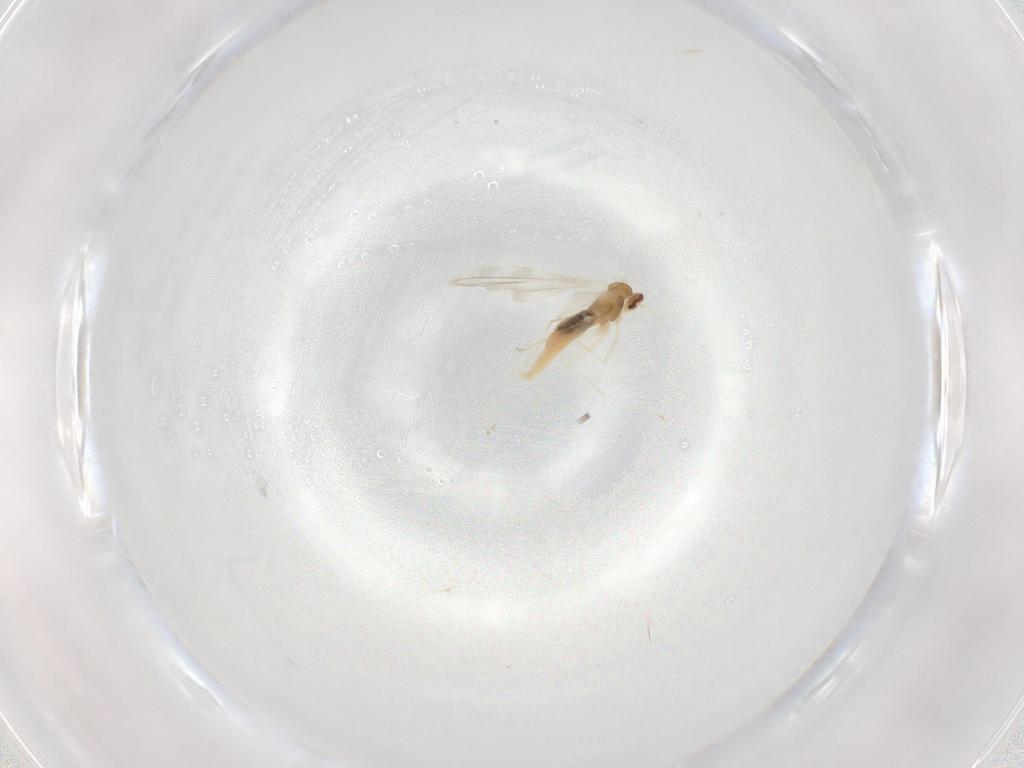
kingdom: Animalia
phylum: Arthropoda
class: Insecta
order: Diptera
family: Cecidomyiidae
